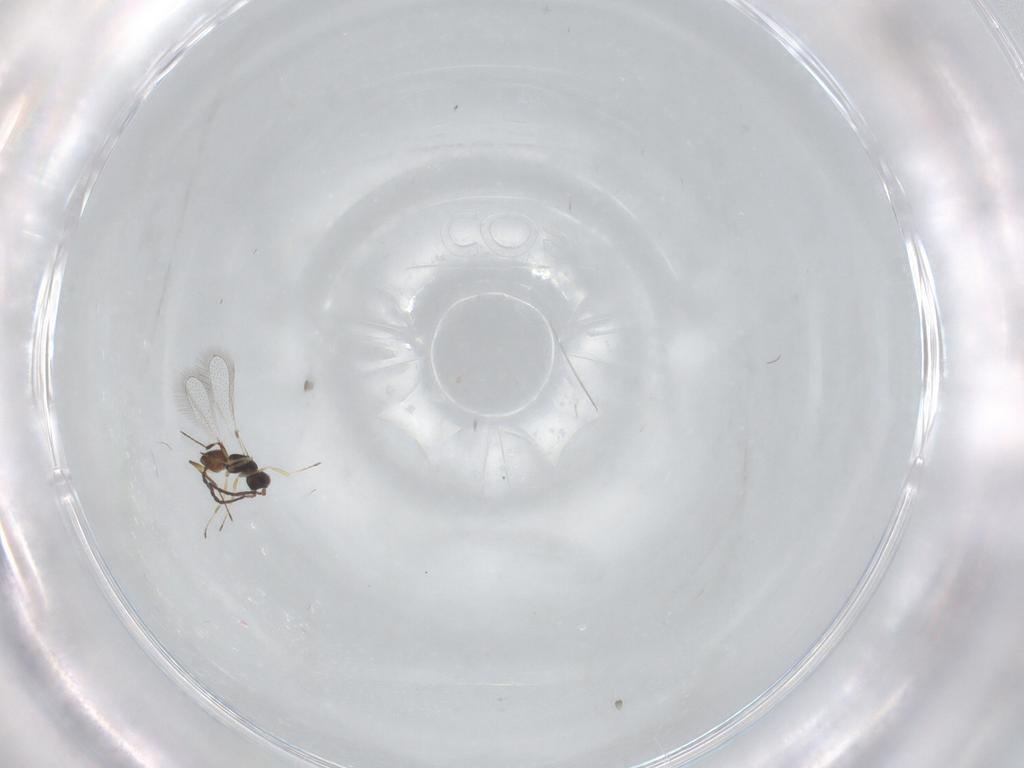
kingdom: Animalia
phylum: Arthropoda
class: Insecta
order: Hymenoptera
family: Mymaridae
